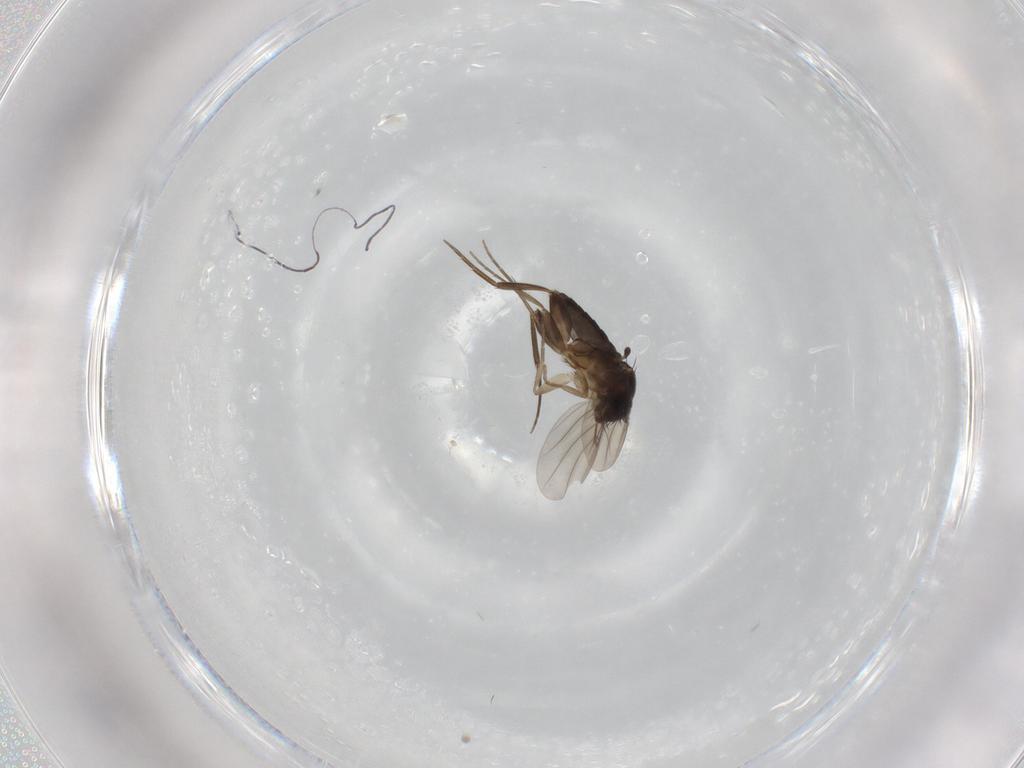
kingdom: Animalia
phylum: Arthropoda
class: Insecta
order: Diptera
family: Phoridae
